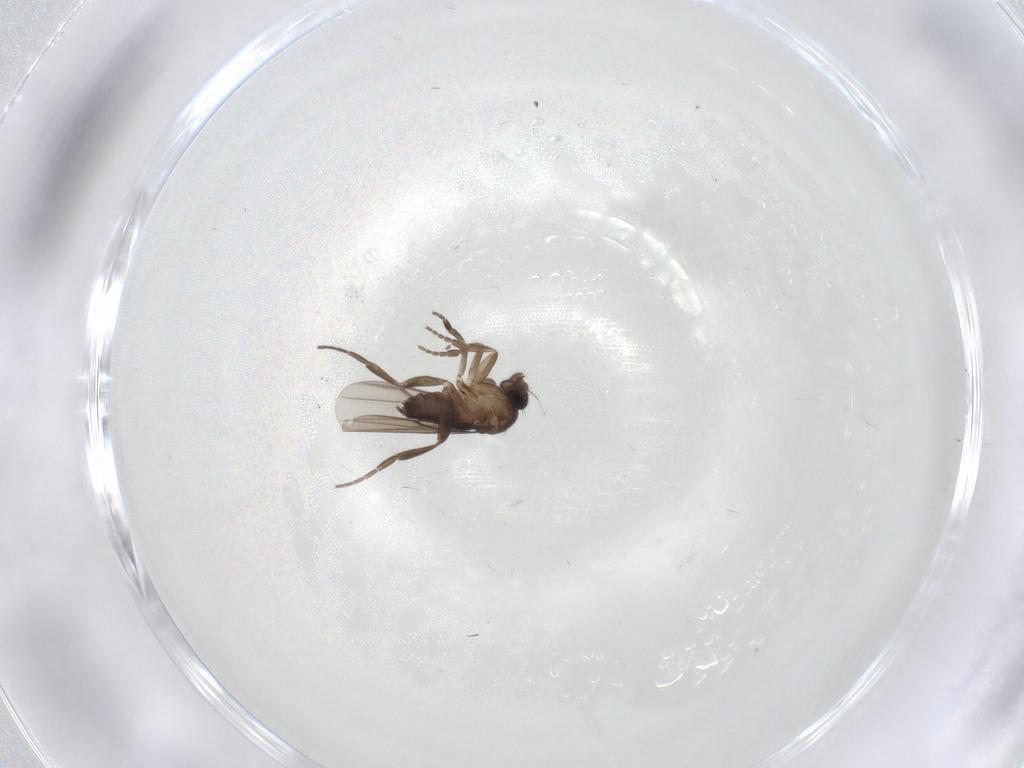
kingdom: Animalia
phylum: Arthropoda
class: Insecta
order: Diptera
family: Phoridae
